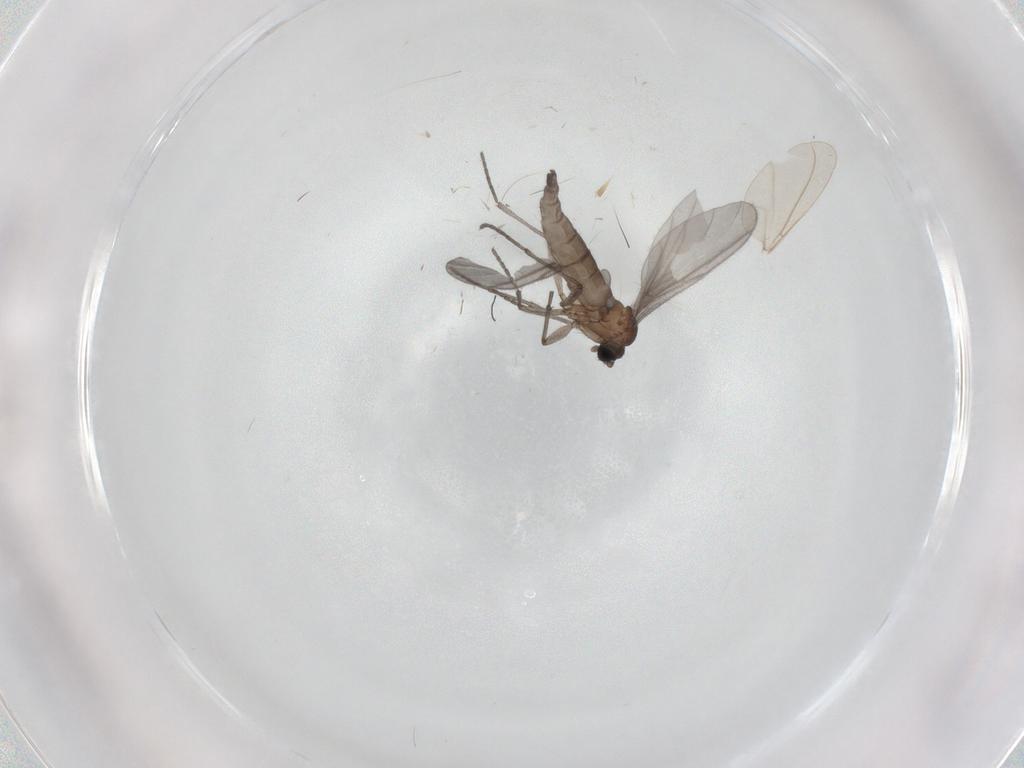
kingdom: Animalia
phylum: Arthropoda
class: Insecta
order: Diptera
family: Sciaridae
